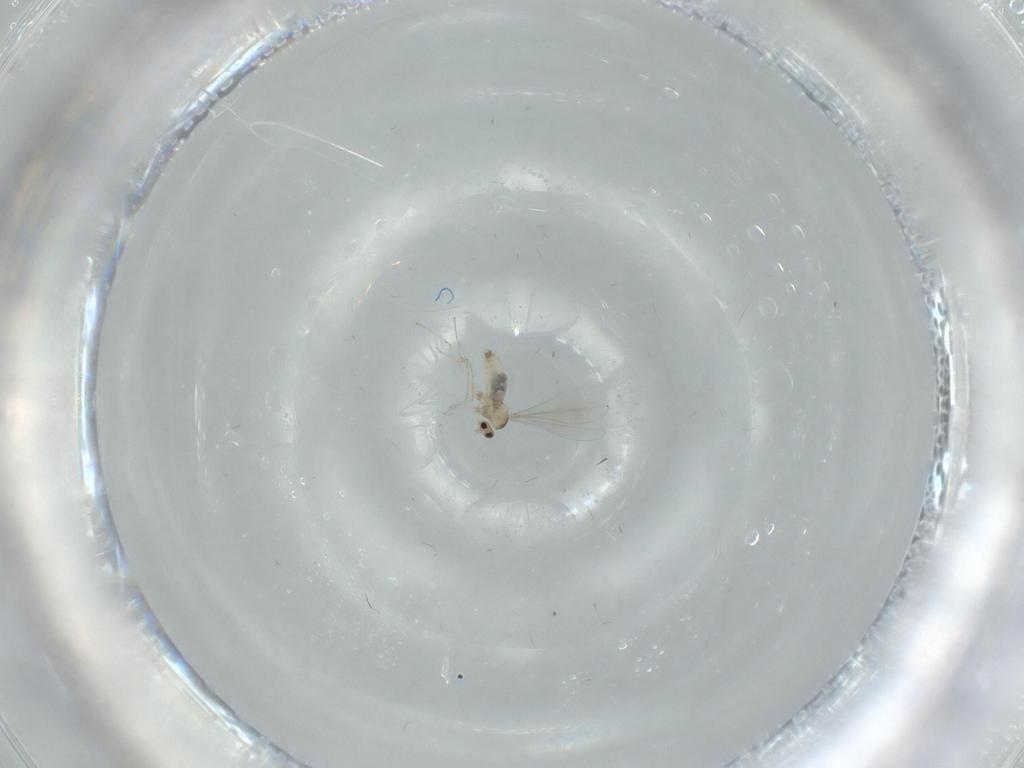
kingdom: Animalia
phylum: Arthropoda
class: Insecta
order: Diptera
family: Cecidomyiidae
